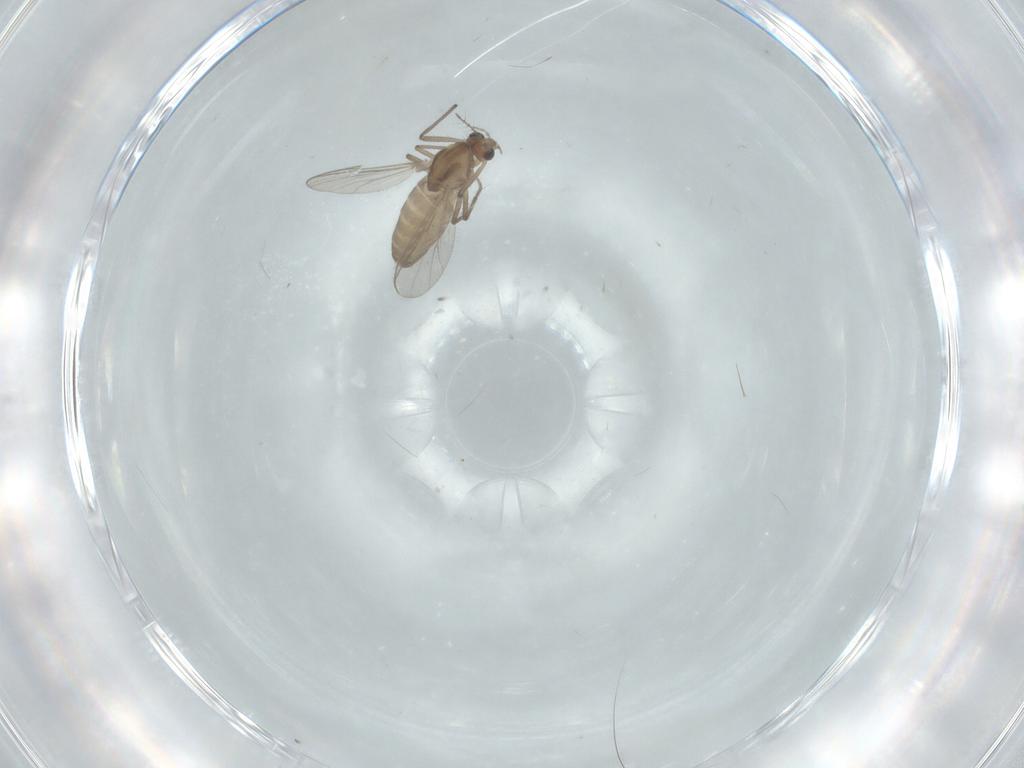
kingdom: Animalia
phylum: Arthropoda
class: Insecta
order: Diptera
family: Chironomidae
